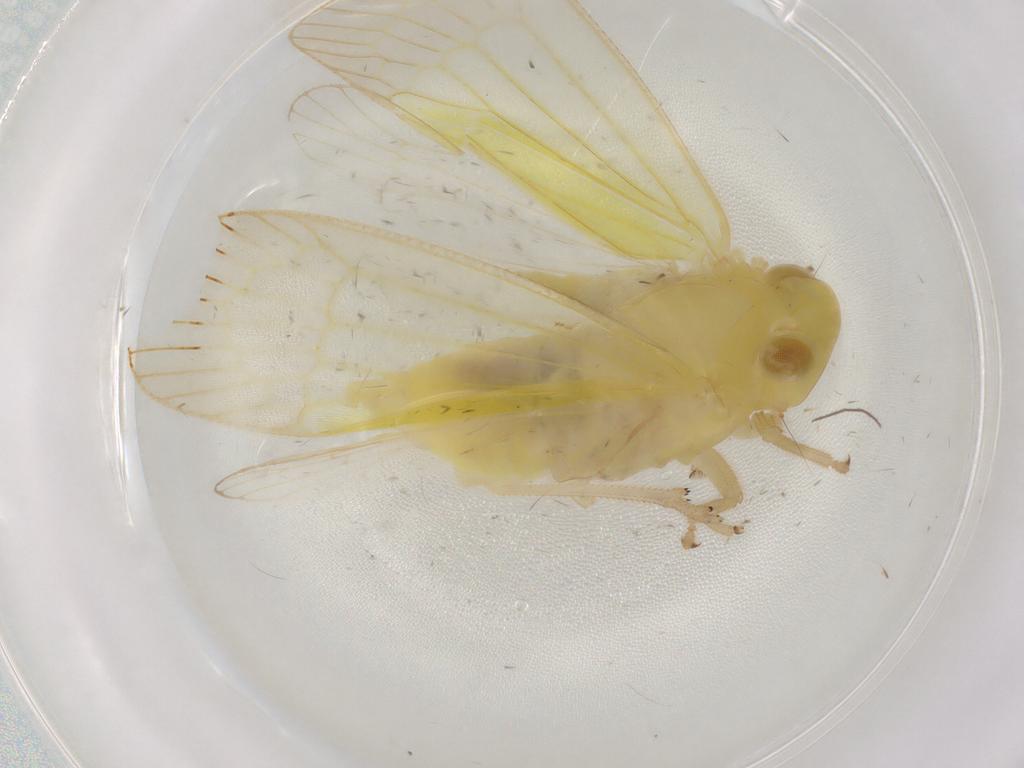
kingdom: Animalia
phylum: Arthropoda
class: Insecta
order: Hemiptera
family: Tropiduchidae
